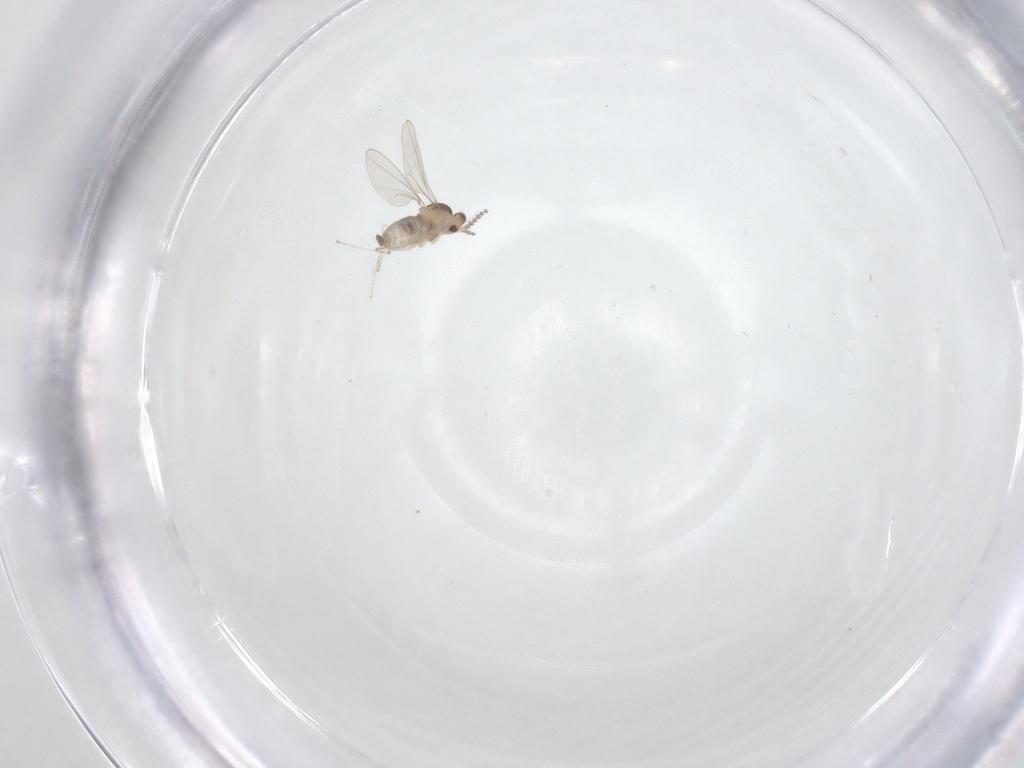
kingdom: Animalia
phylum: Arthropoda
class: Insecta
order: Diptera
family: Cecidomyiidae
